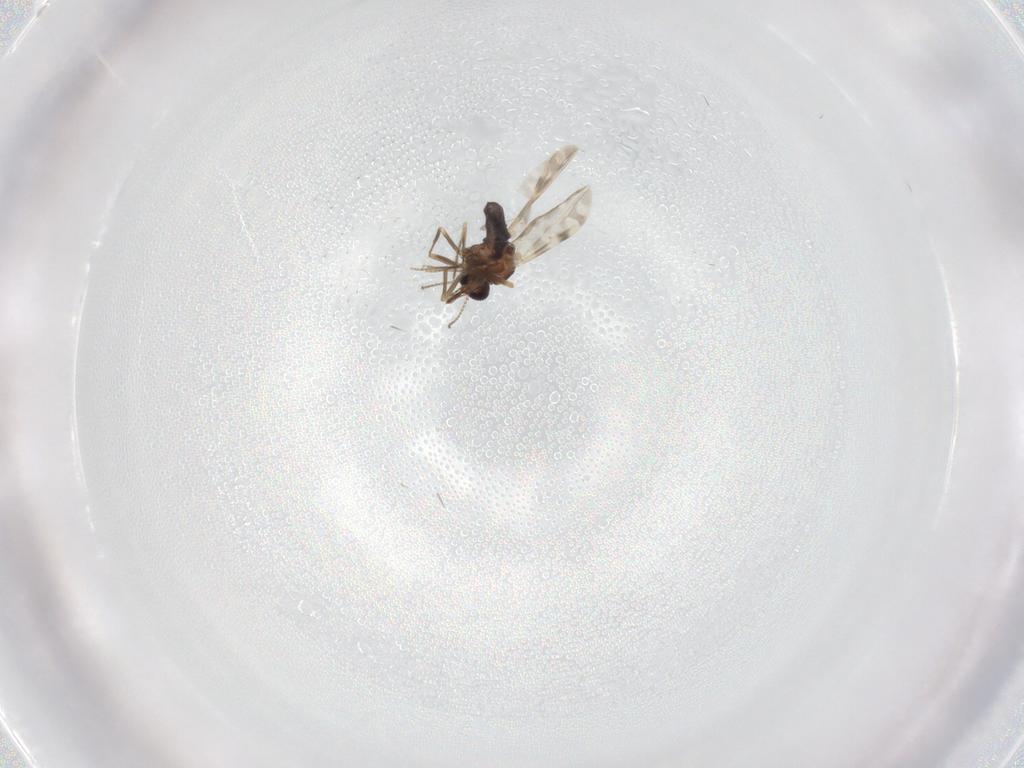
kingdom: Animalia
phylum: Arthropoda
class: Insecta
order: Diptera
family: Ceratopogonidae
